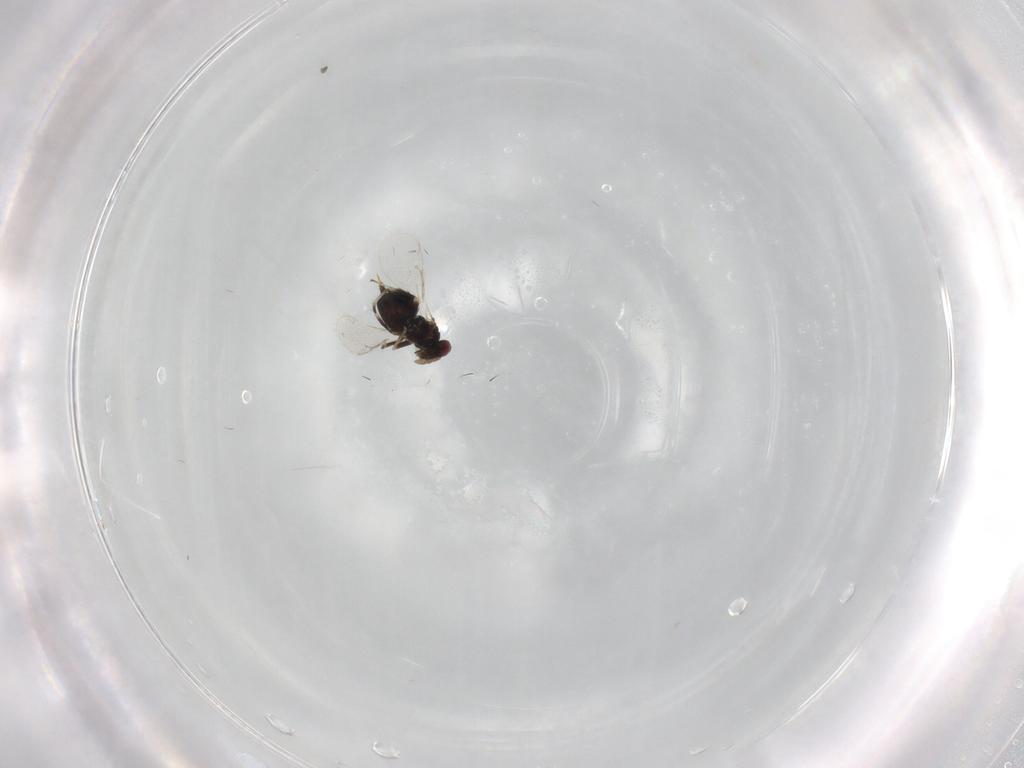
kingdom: Animalia
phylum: Arthropoda
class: Insecta
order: Hymenoptera
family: Eulophidae
